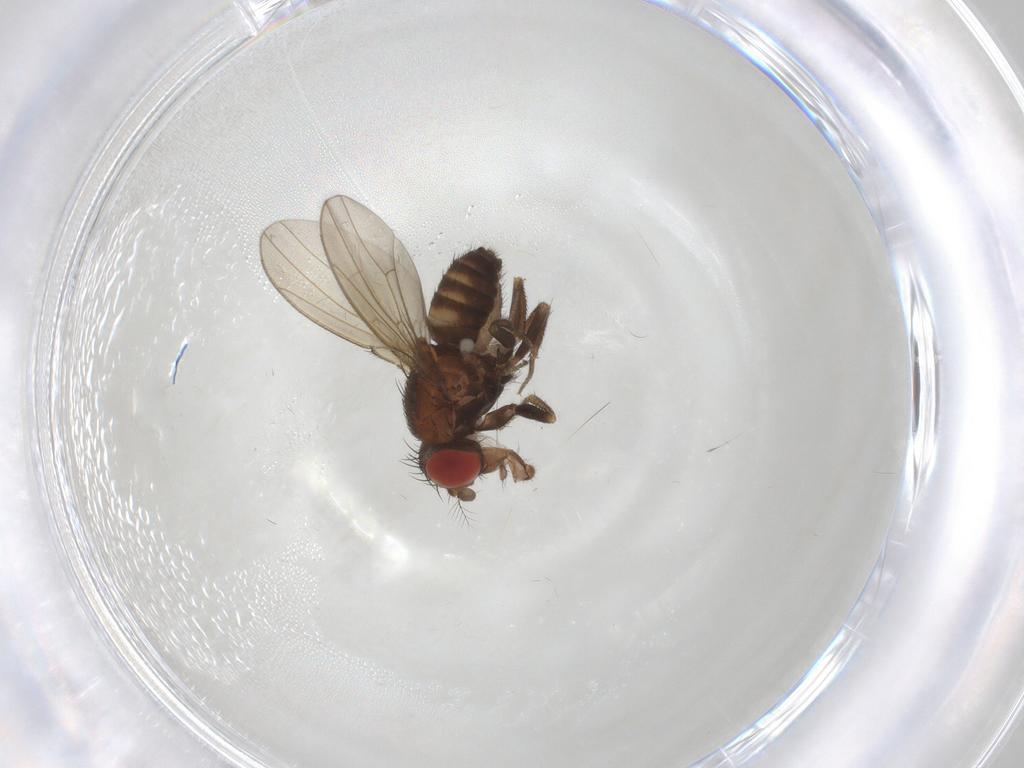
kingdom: Animalia
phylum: Arthropoda
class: Insecta
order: Diptera
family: Drosophilidae
